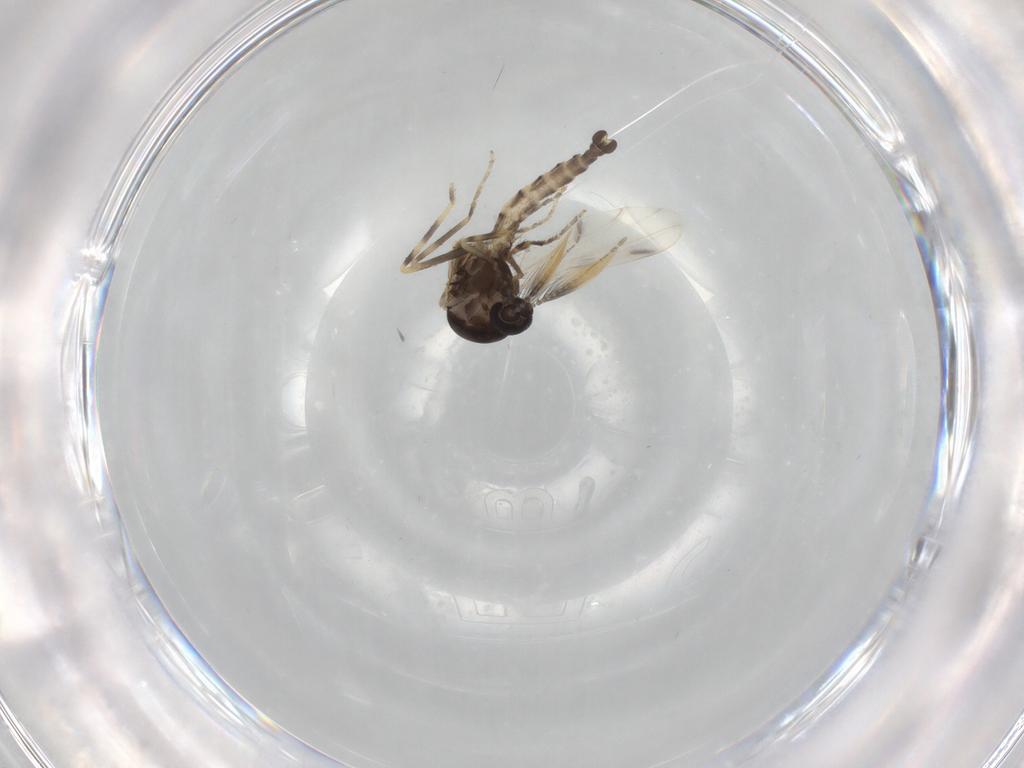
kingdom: Animalia
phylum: Arthropoda
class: Insecta
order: Diptera
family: Ceratopogonidae
